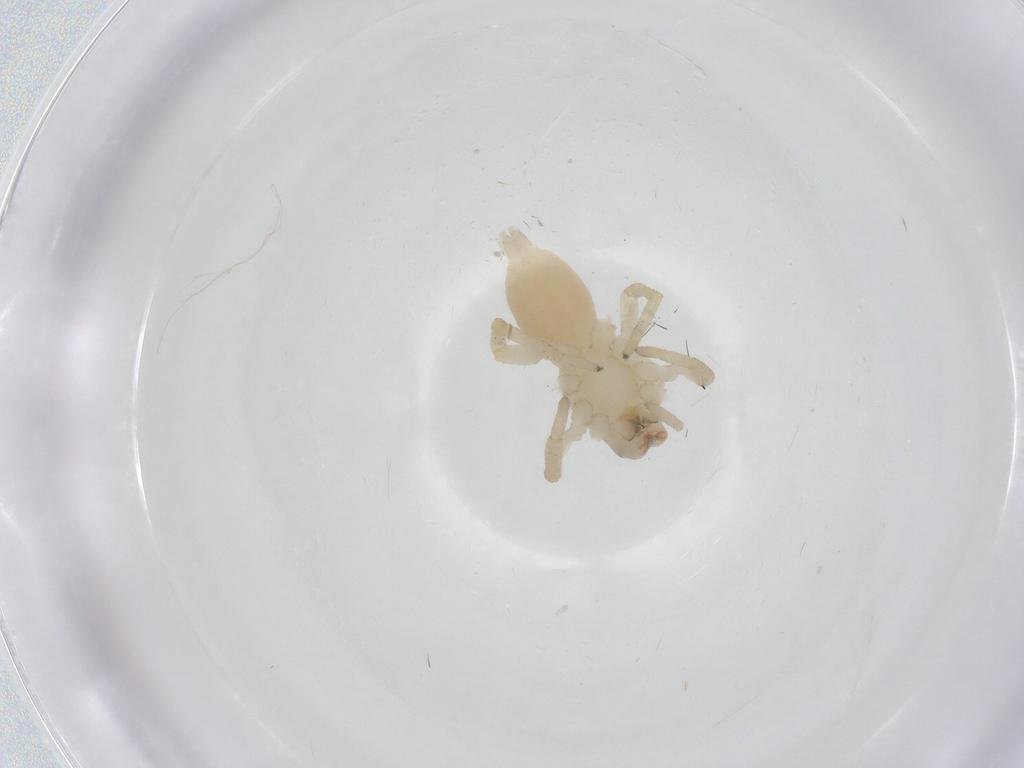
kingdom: Animalia
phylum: Arthropoda
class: Arachnida
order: Araneae
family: Clubionidae
